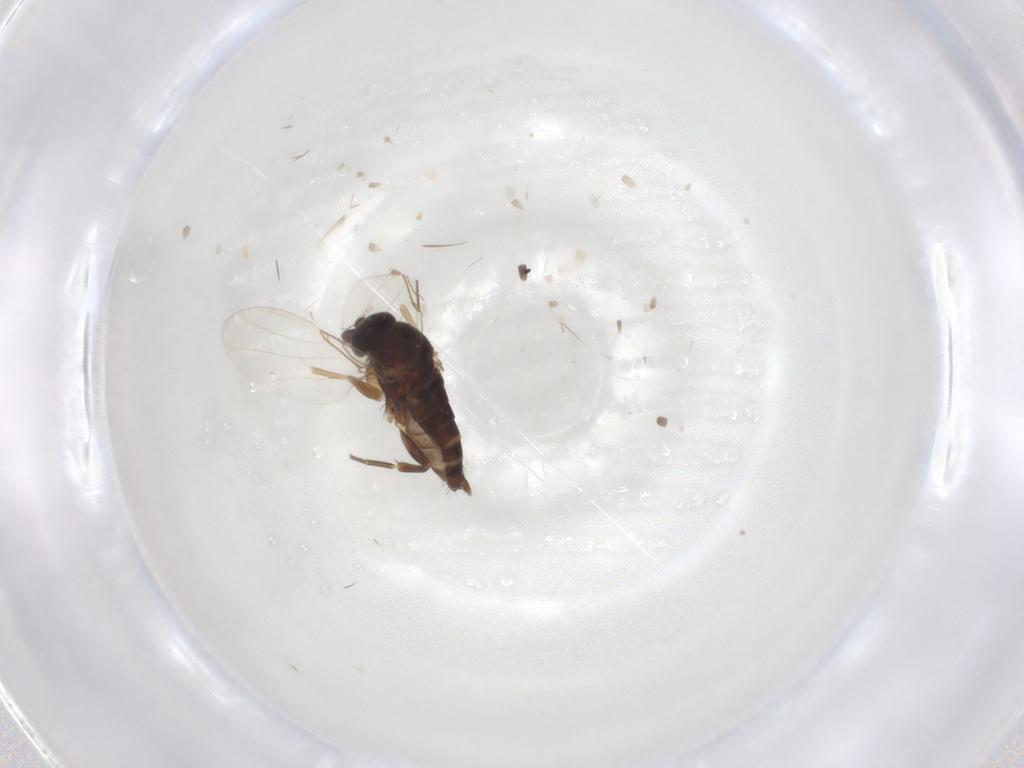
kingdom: Animalia
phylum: Arthropoda
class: Insecta
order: Diptera
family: Phoridae
